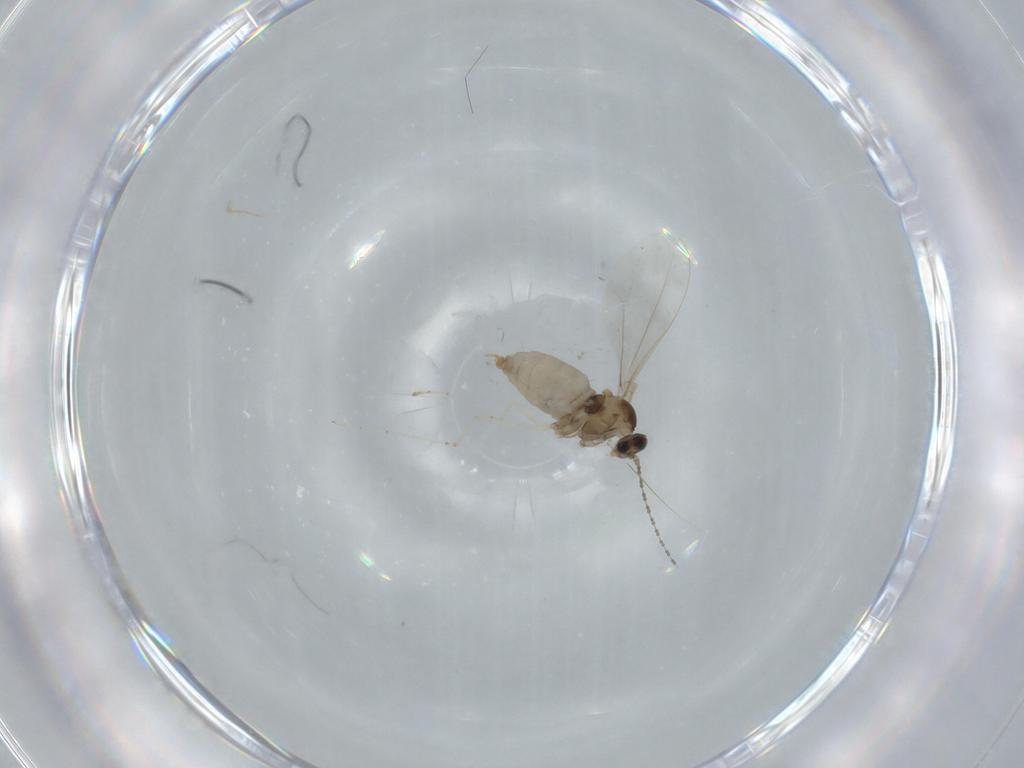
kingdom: Animalia
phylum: Arthropoda
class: Insecta
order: Diptera
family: Cecidomyiidae
